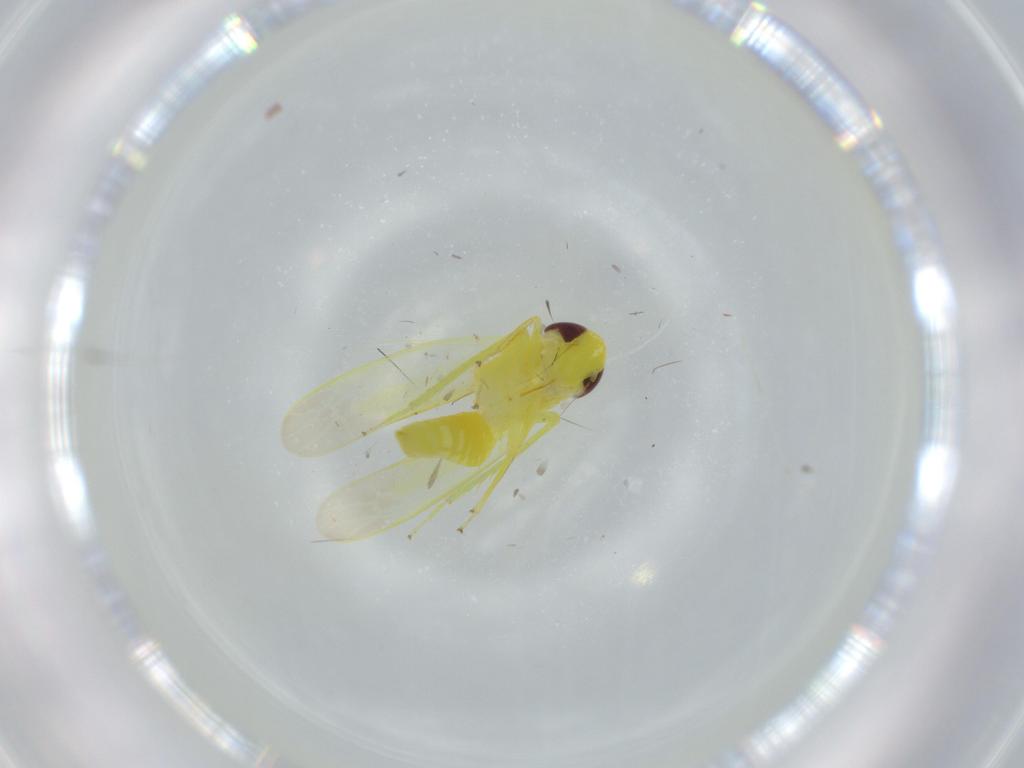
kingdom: Animalia
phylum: Arthropoda
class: Insecta
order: Hemiptera
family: Cicadellidae
